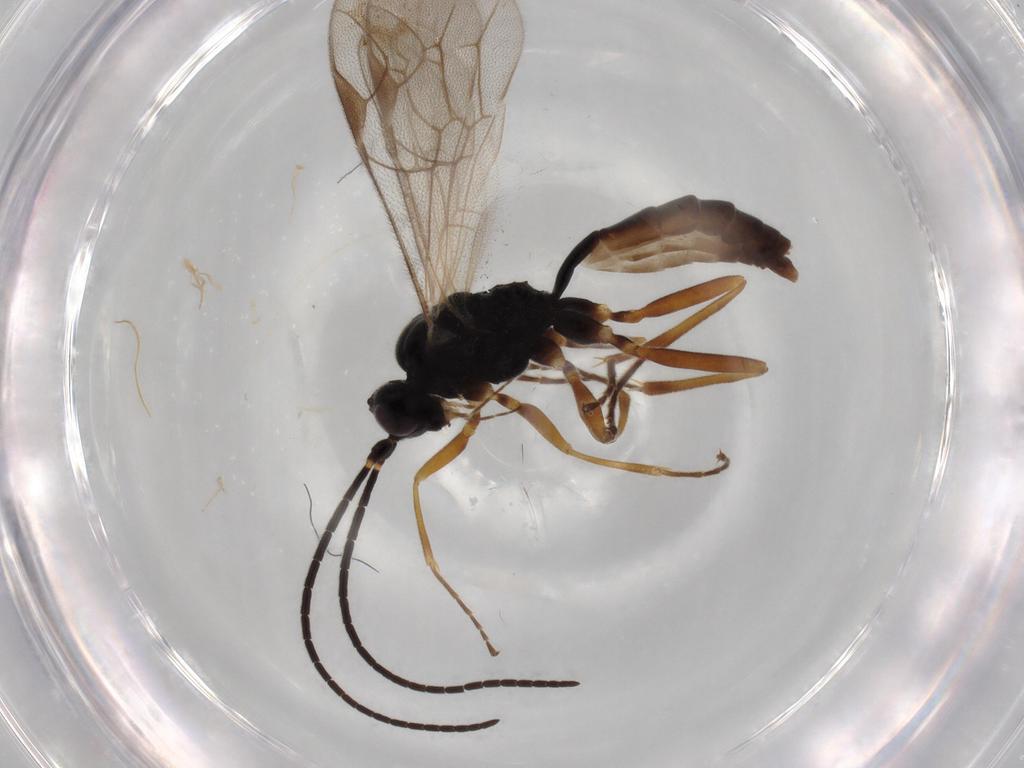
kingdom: Animalia
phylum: Arthropoda
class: Insecta
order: Hymenoptera
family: Ichneumonidae
